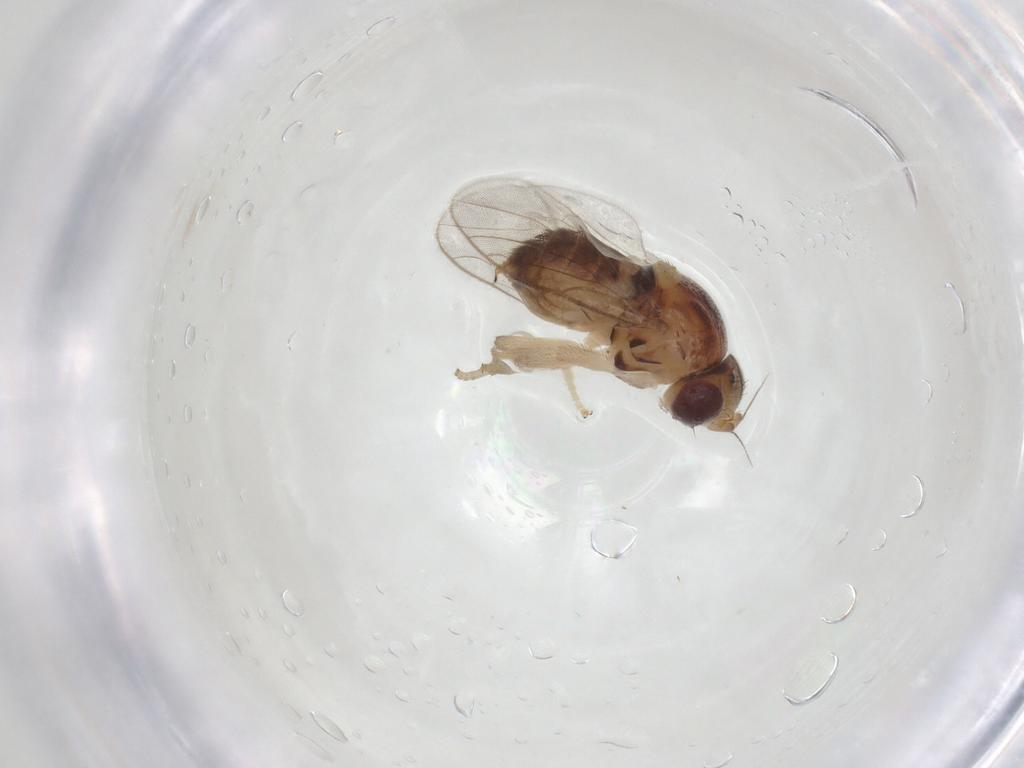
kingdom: Animalia
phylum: Arthropoda
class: Insecta
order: Diptera
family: Chloropidae
